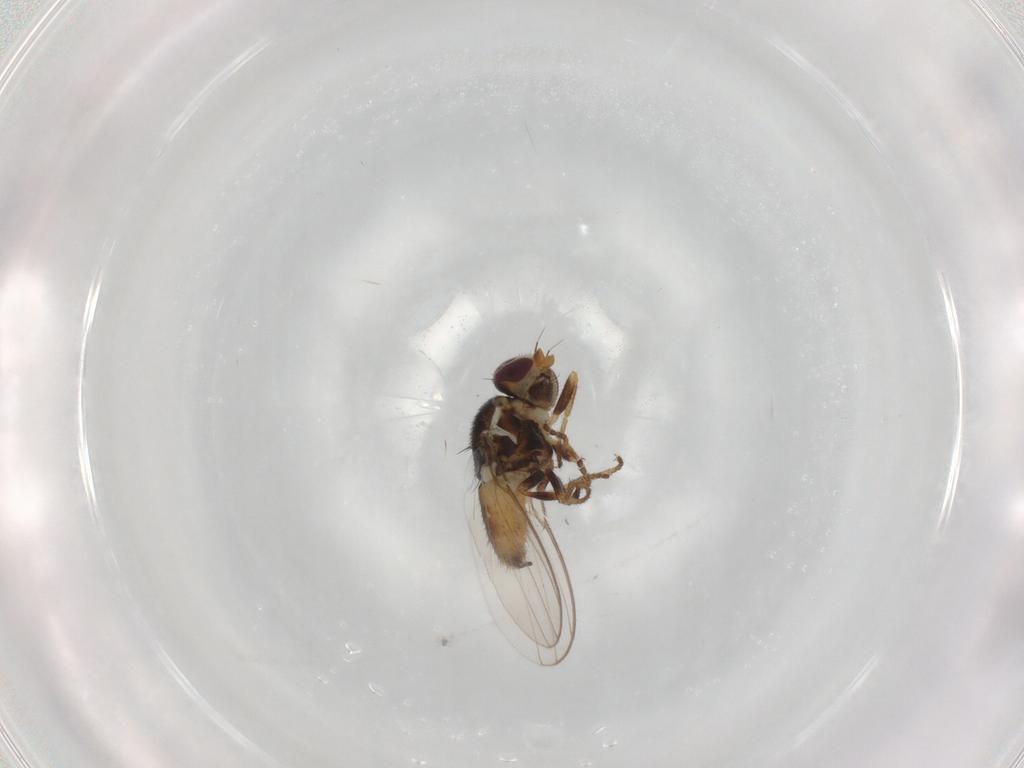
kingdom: Animalia
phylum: Arthropoda
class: Insecta
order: Diptera
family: Chloropidae
